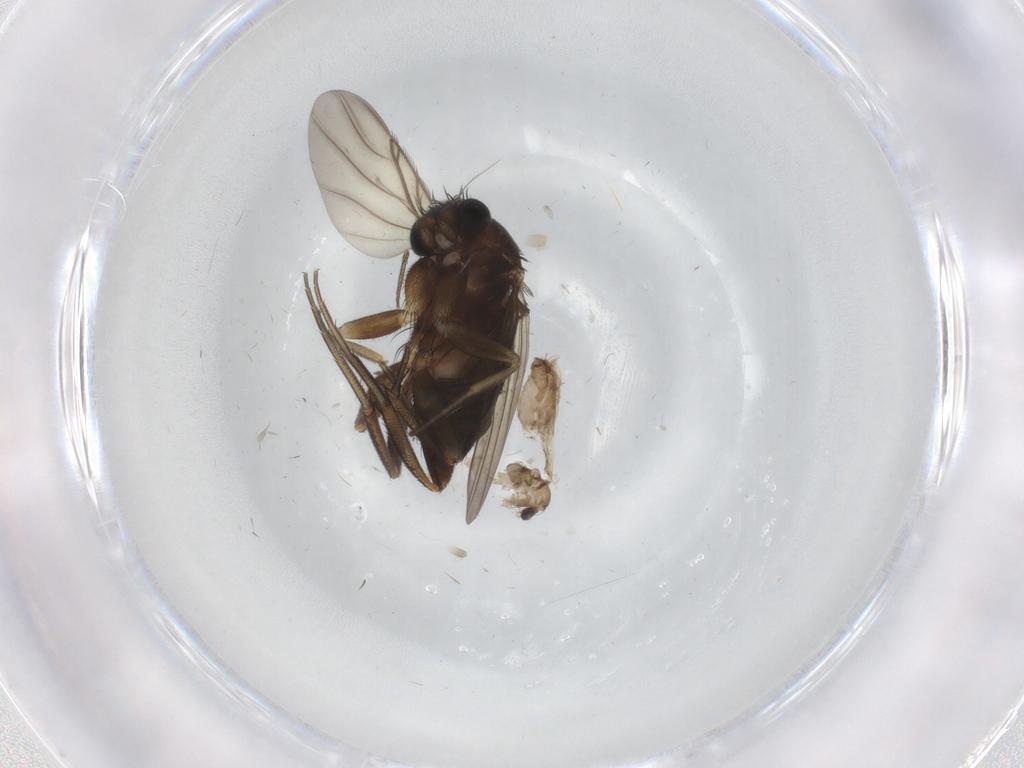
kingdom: Animalia
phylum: Arthropoda
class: Insecta
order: Diptera
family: Cecidomyiidae
